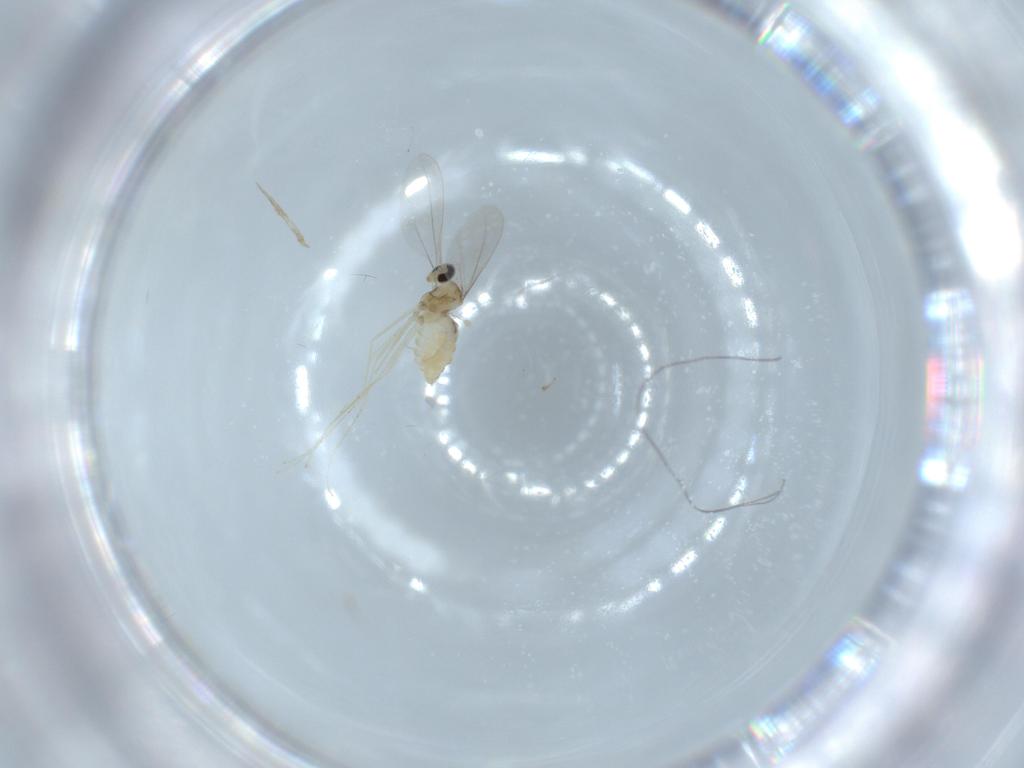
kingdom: Animalia
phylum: Arthropoda
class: Insecta
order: Diptera
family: Cecidomyiidae
